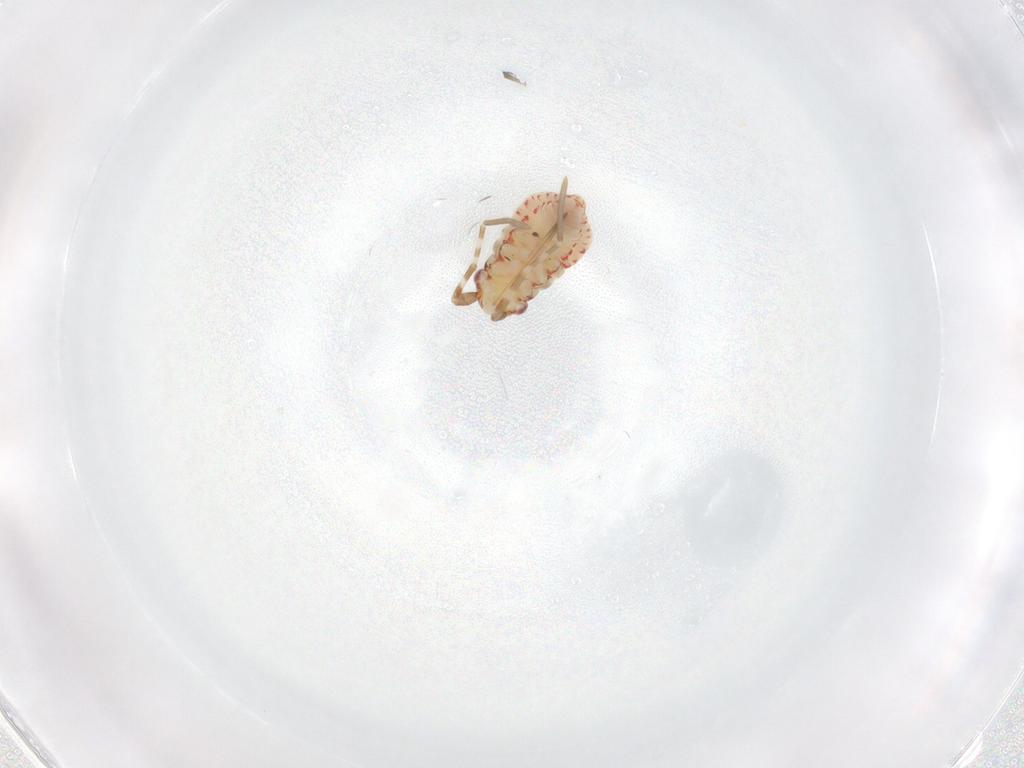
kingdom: Animalia
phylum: Arthropoda
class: Insecta
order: Hemiptera
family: Miridae
